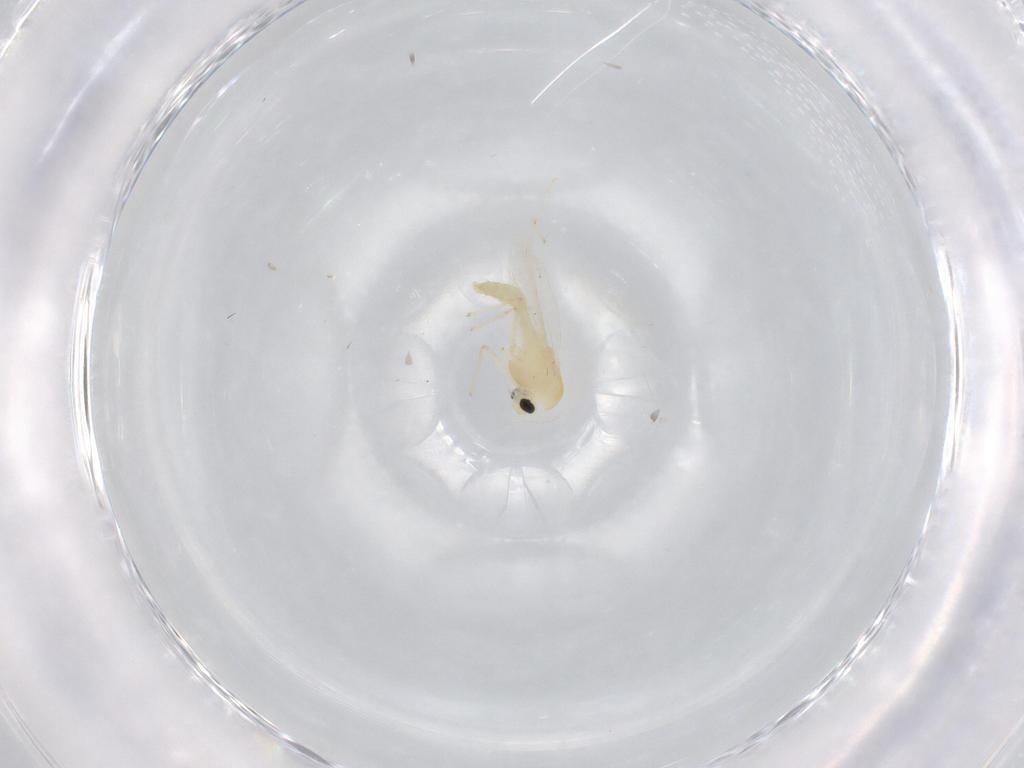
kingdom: Animalia
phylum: Arthropoda
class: Insecta
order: Diptera
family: Chironomidae
